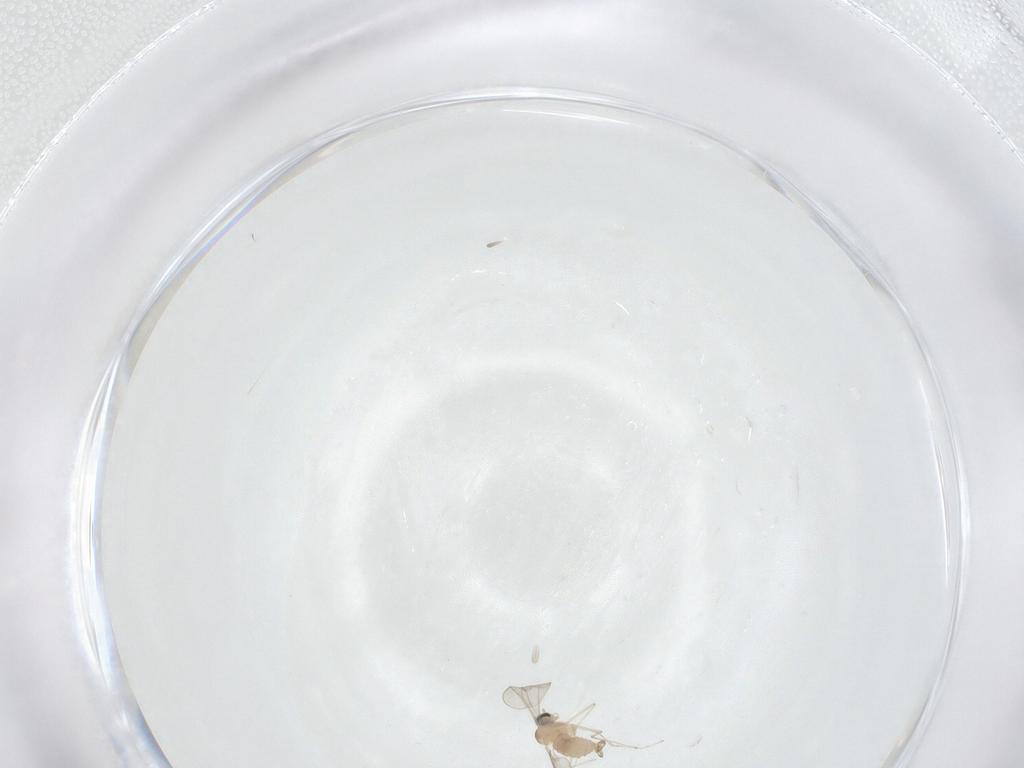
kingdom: Animalia
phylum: Arthropoda
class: Insecta
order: Diptera
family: Cecidomyiidae
